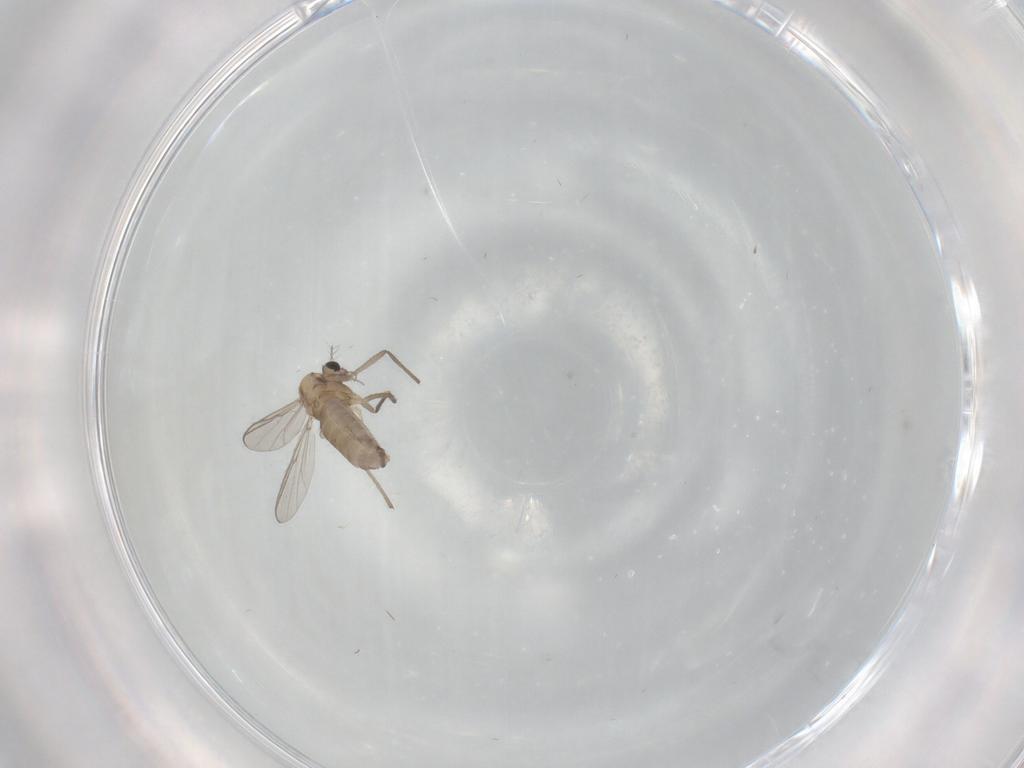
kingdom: Animalia
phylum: Arthropoda
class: Insecta
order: Diptera
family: Chironomidae
